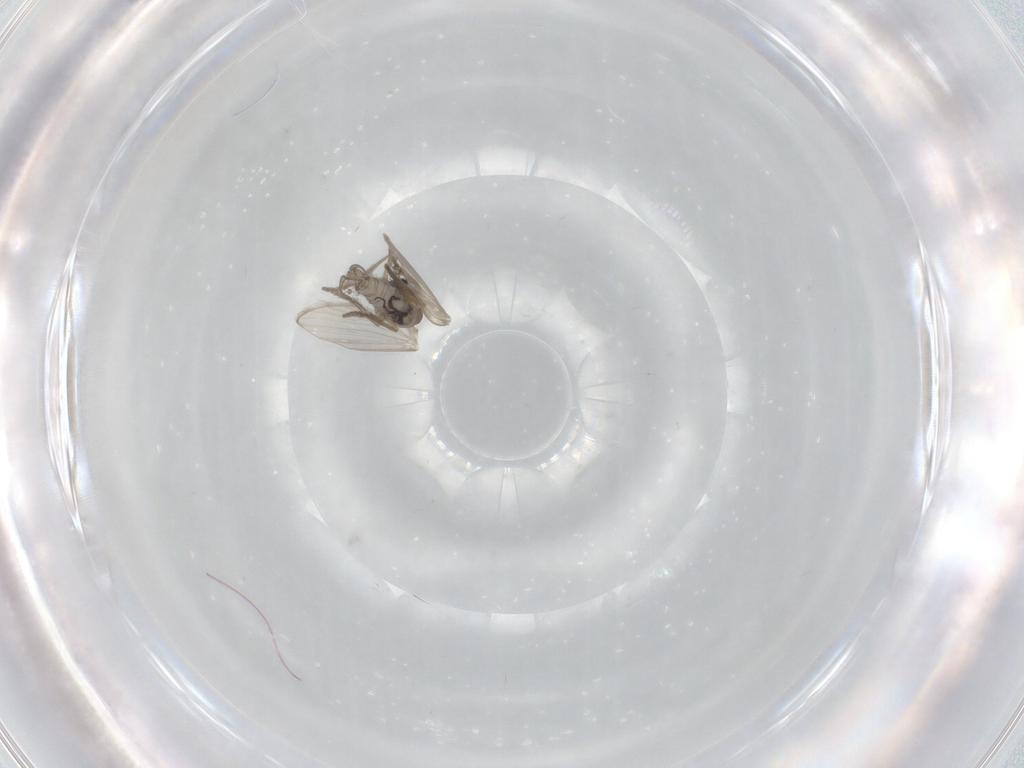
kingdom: Animalia
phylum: Arthropoda
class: Insecta
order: Diptera
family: Psychodidae
